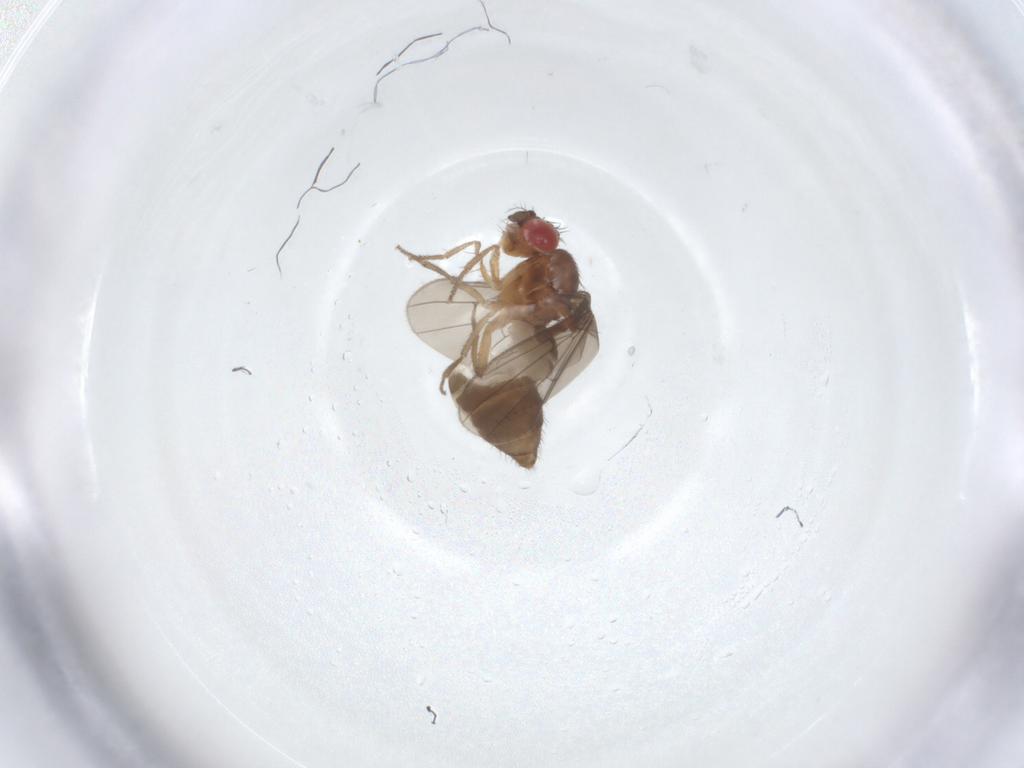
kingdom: Animalia
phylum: Arthropoda
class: Insecta
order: Diptera
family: Drosophilidae
